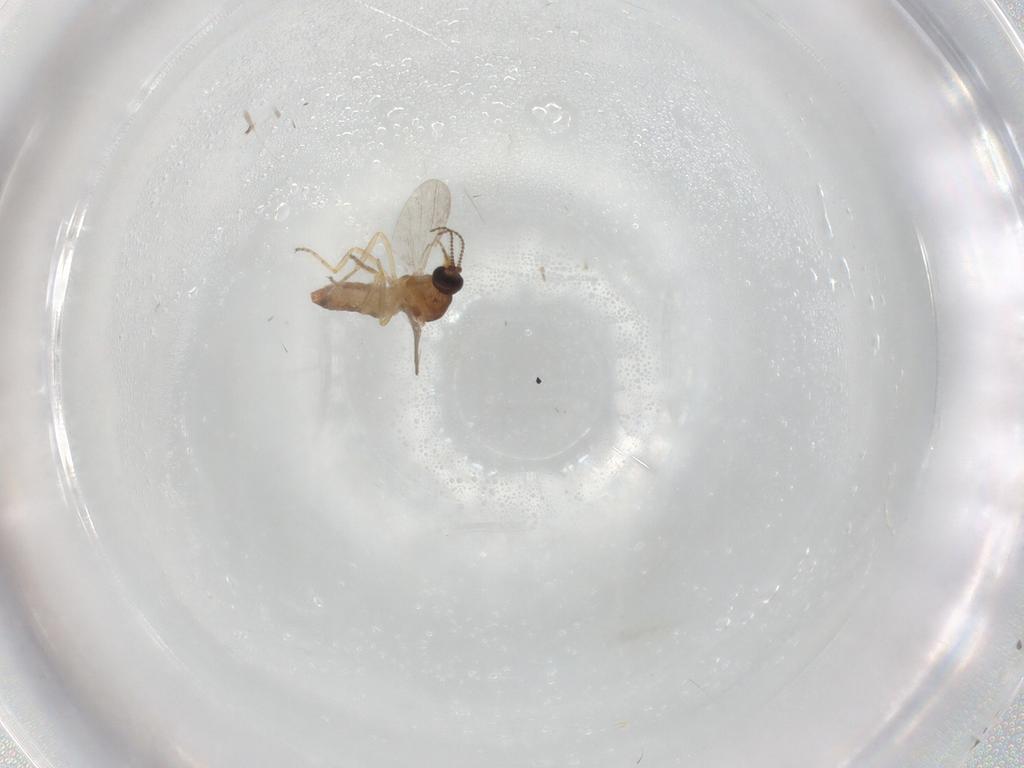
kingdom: Animalia
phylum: Arthropoda
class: Insecta
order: Diptera
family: Ceratopogonidae
